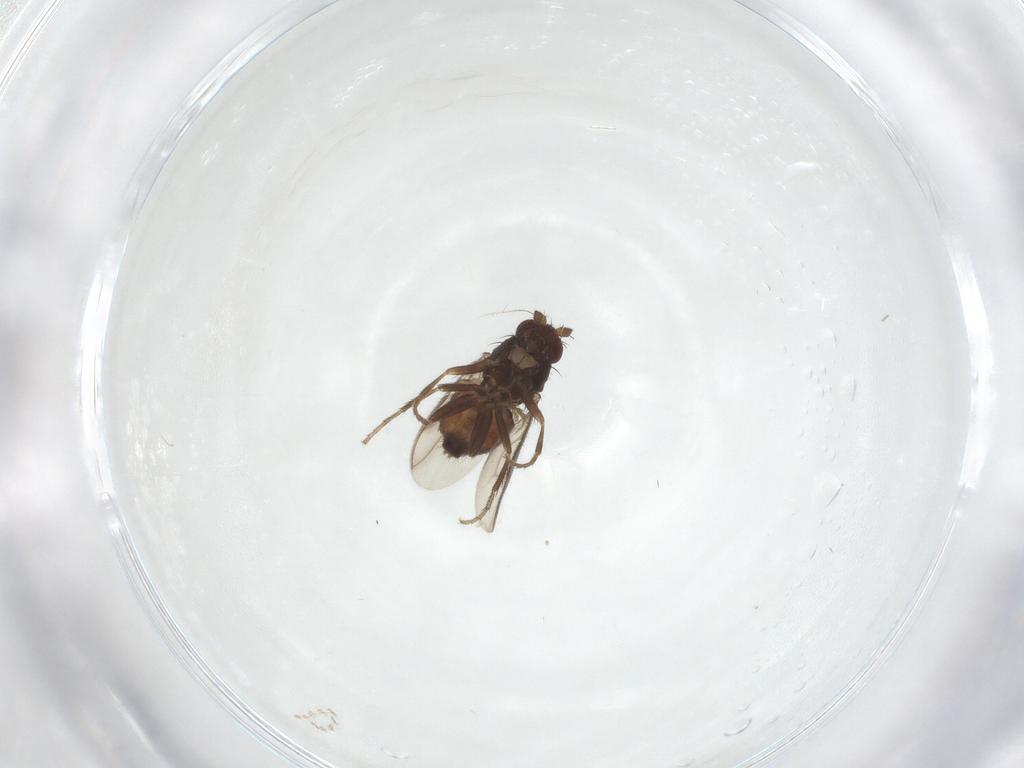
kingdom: Animalia
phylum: Arthropoda
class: Insecta
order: Diptera
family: Sphaeroceridae
